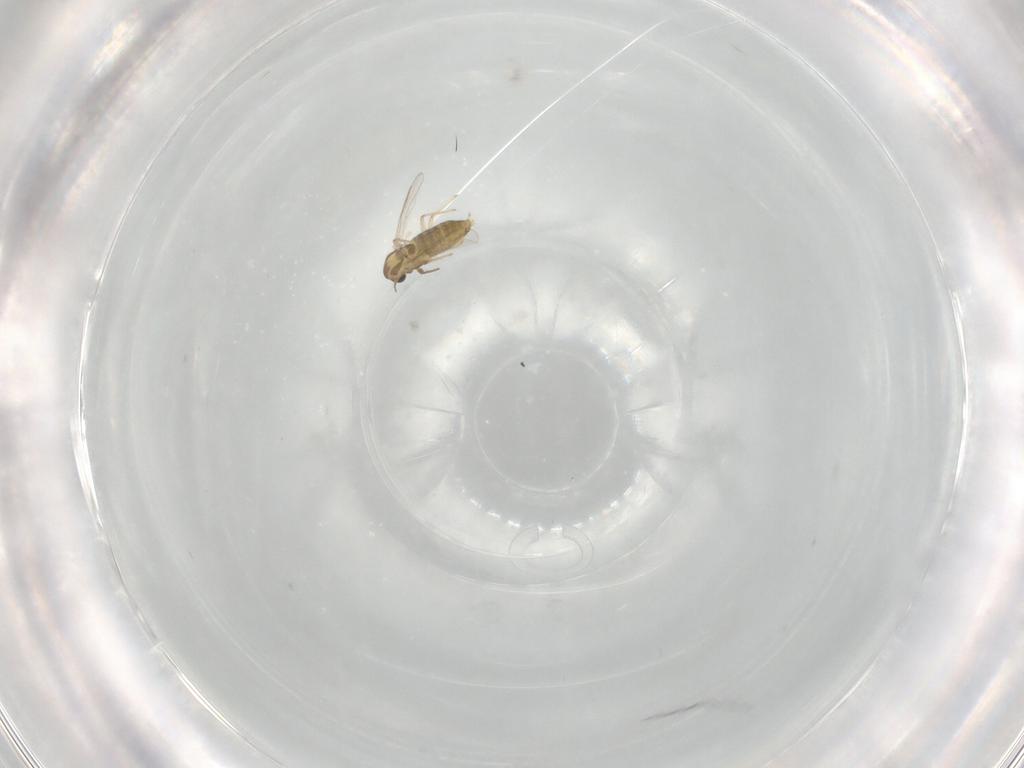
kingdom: Animalia
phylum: Arthropoda
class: Insecta
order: Diptera
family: Chironomidae
